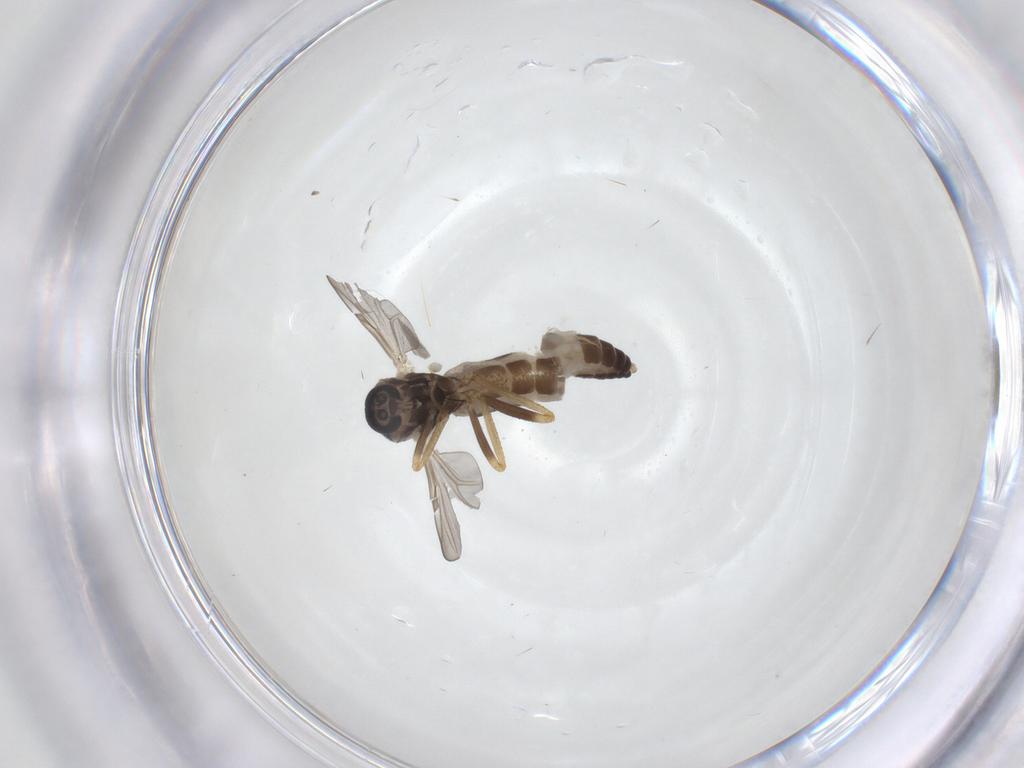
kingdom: Animalia
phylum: Arthropoda
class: Insecta
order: Diptera
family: Ceratopogonidae
